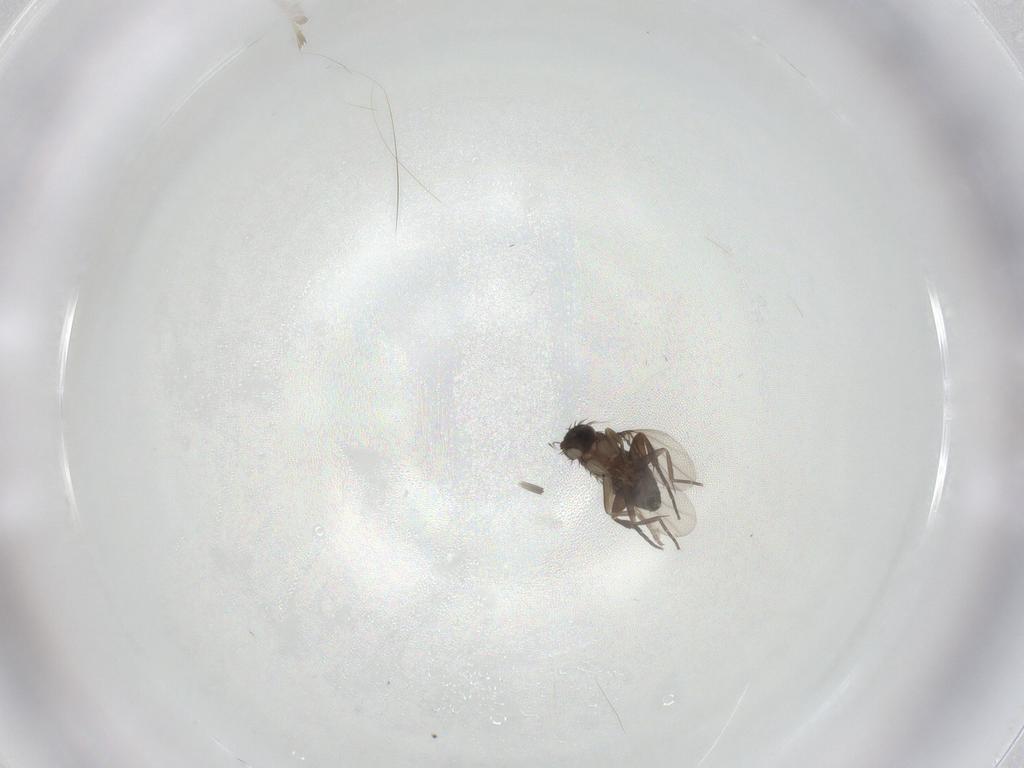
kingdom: Animalia
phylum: Arthropoda
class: Insecta
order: Diptera
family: Phoridae
